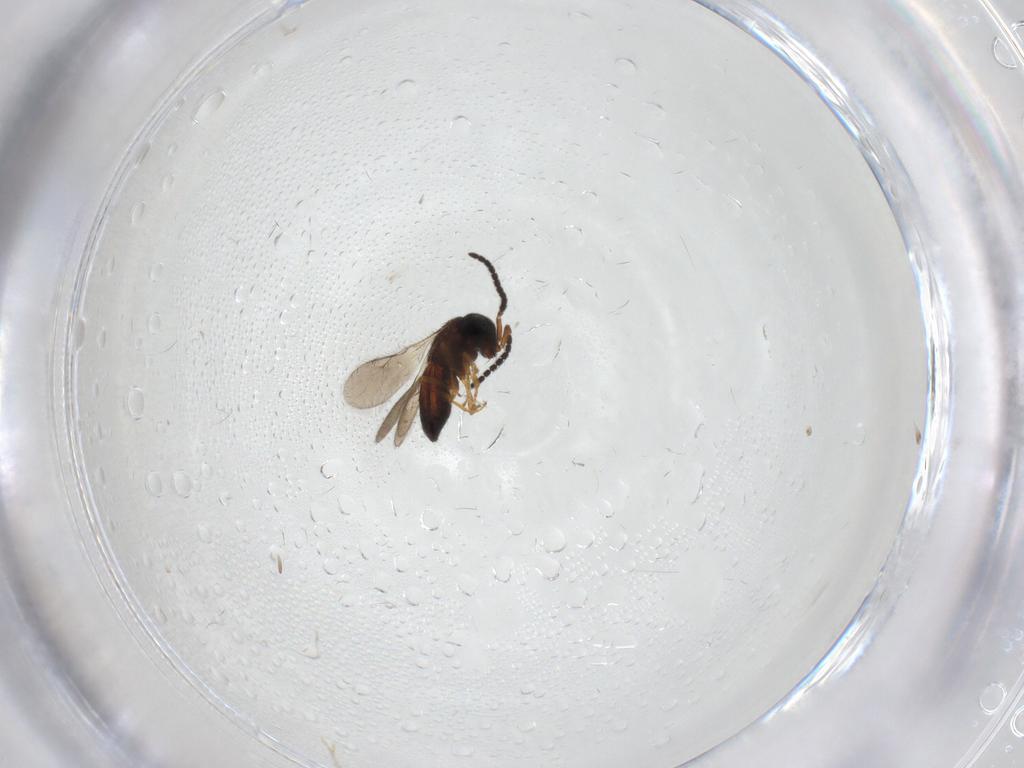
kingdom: Animalia
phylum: Arthropoda
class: Insecta
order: Hymenoptera
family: Scelionidae
